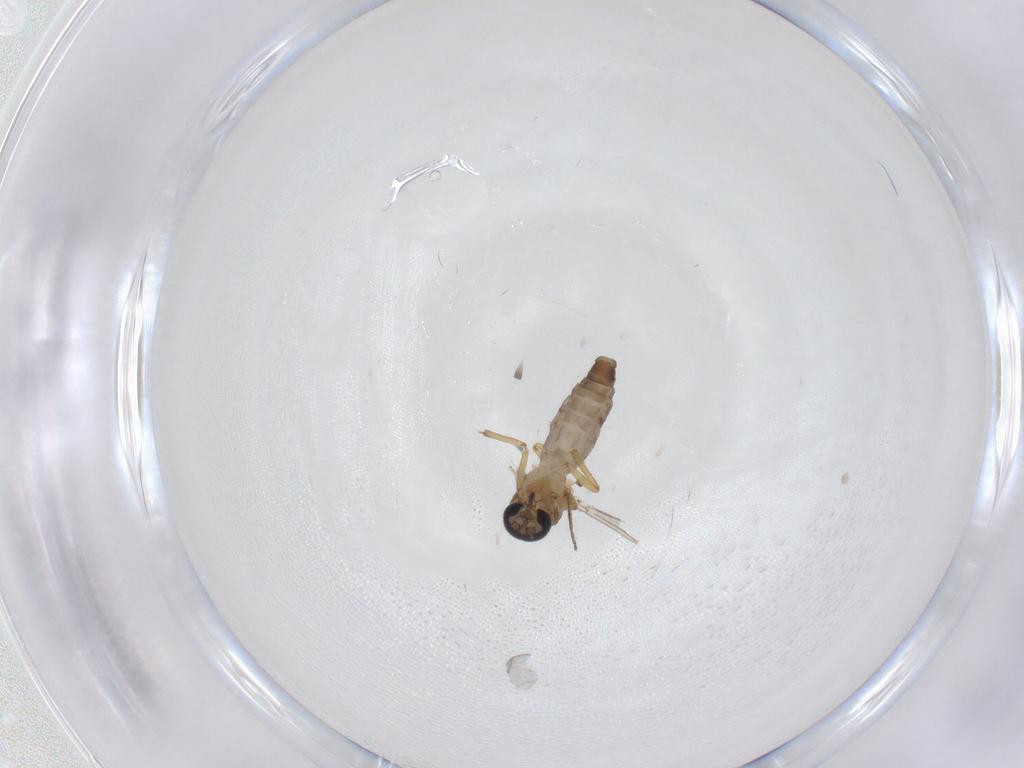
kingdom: Animalia
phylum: Arthropoda
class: Insecta
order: Diptera
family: Ceratopogonidae
